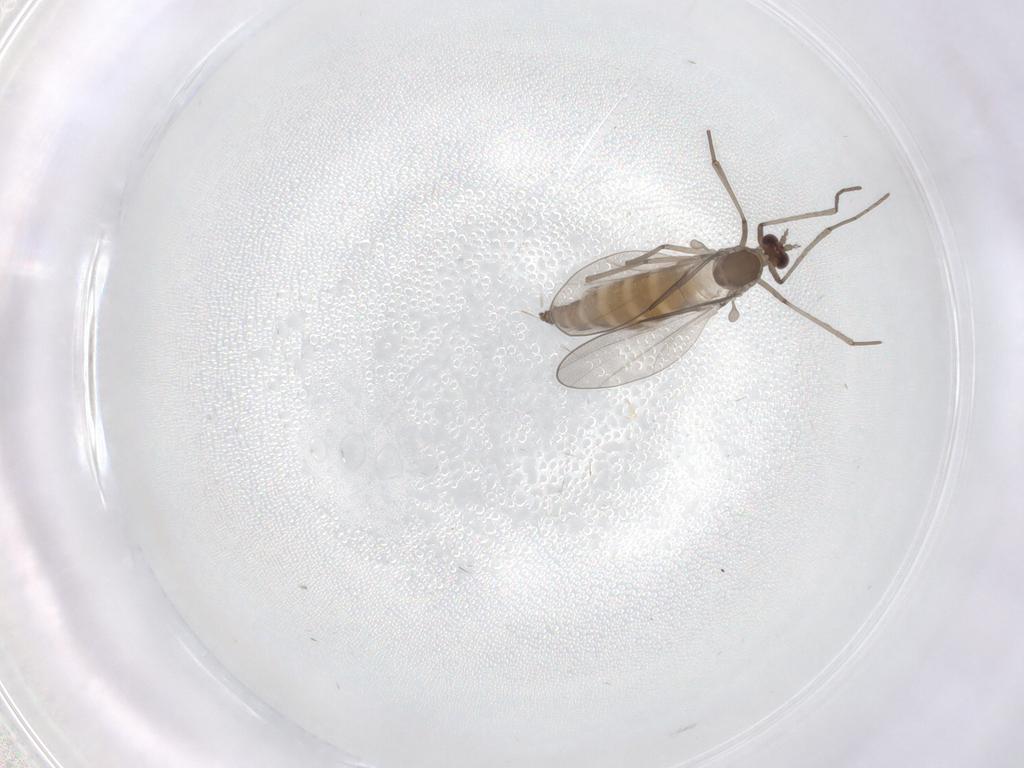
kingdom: Animalia
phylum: Arthropoda
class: Insecta
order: Diptera
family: Cecidomyiidae
